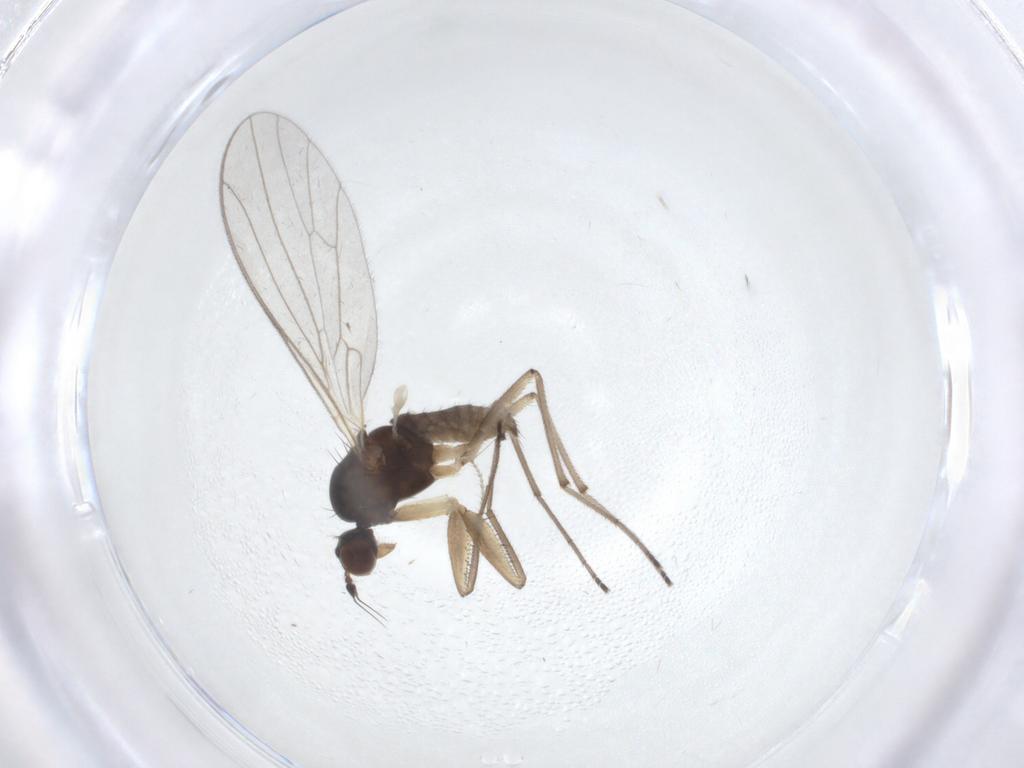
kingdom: Animalia
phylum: Arthropoda
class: Insecta
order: Diptera
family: Empididae
